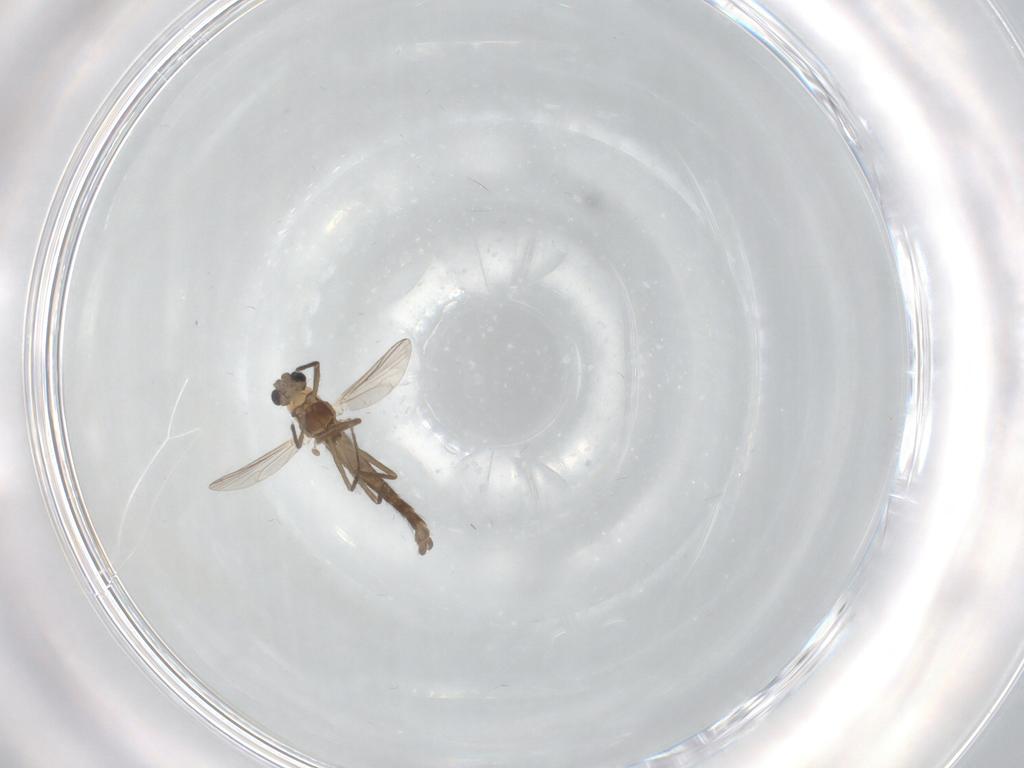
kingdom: Animalia
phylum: Arthropoda
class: Insecta
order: Diptera
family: Chironomidae
